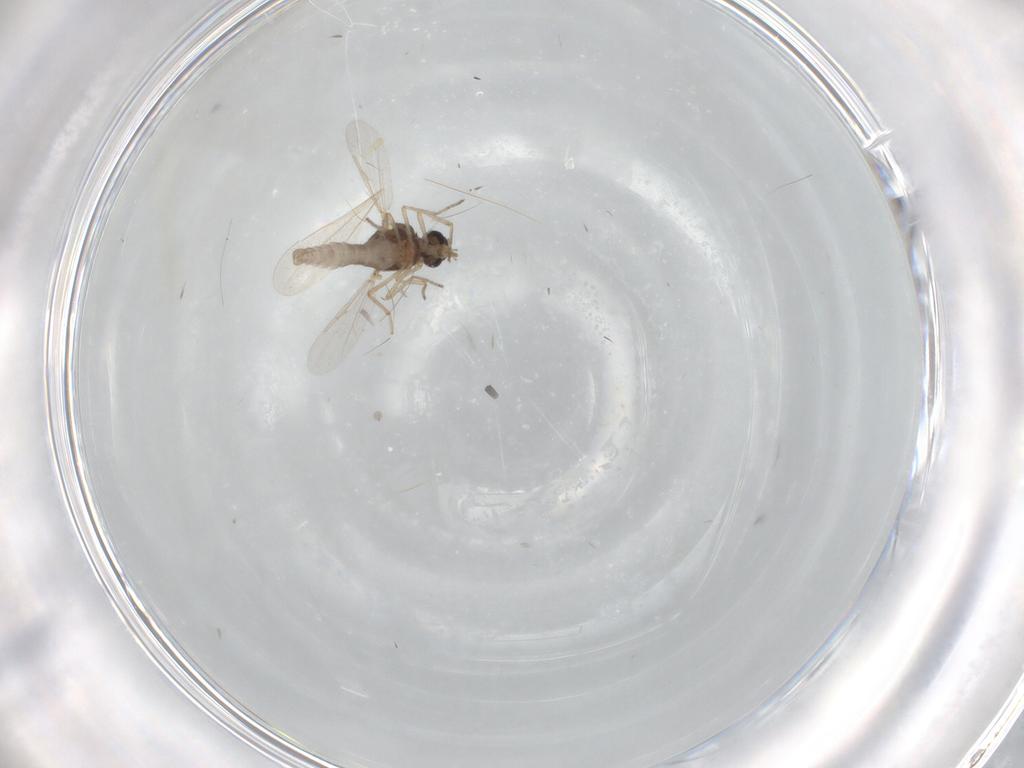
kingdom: Animalia
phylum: Arthropoda
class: Insecta
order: Diptera
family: Ceratopogonidae
